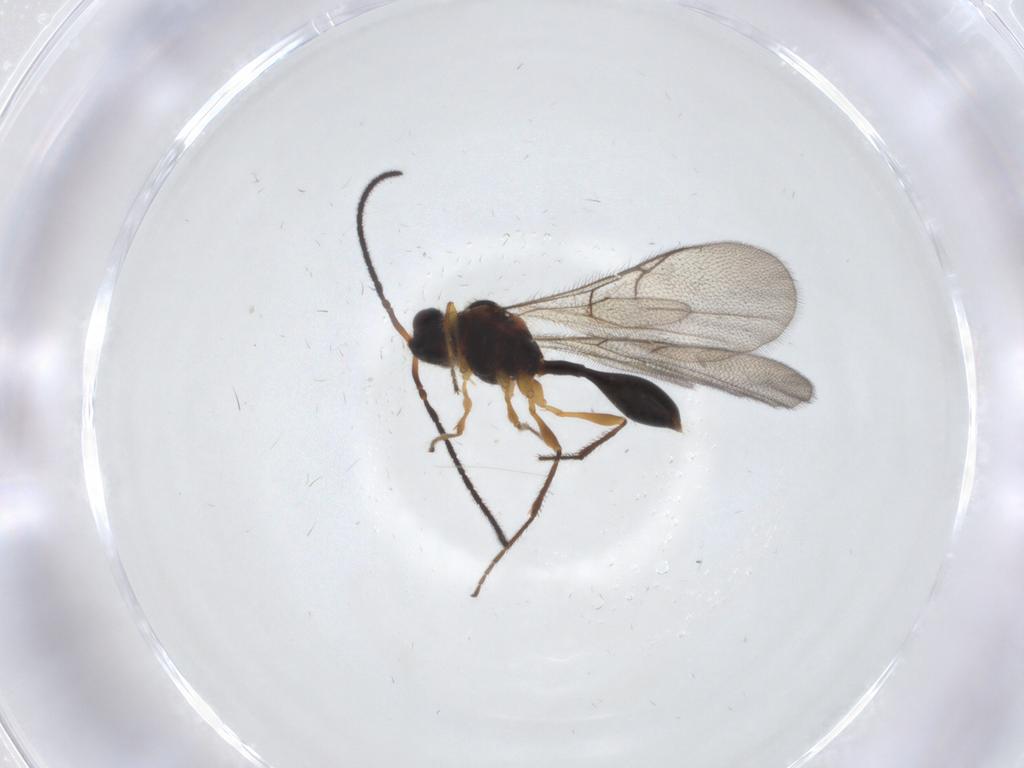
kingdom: Animalia
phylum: Arthropoda
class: Insecta
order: Hymenoptera
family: Diapriidae
